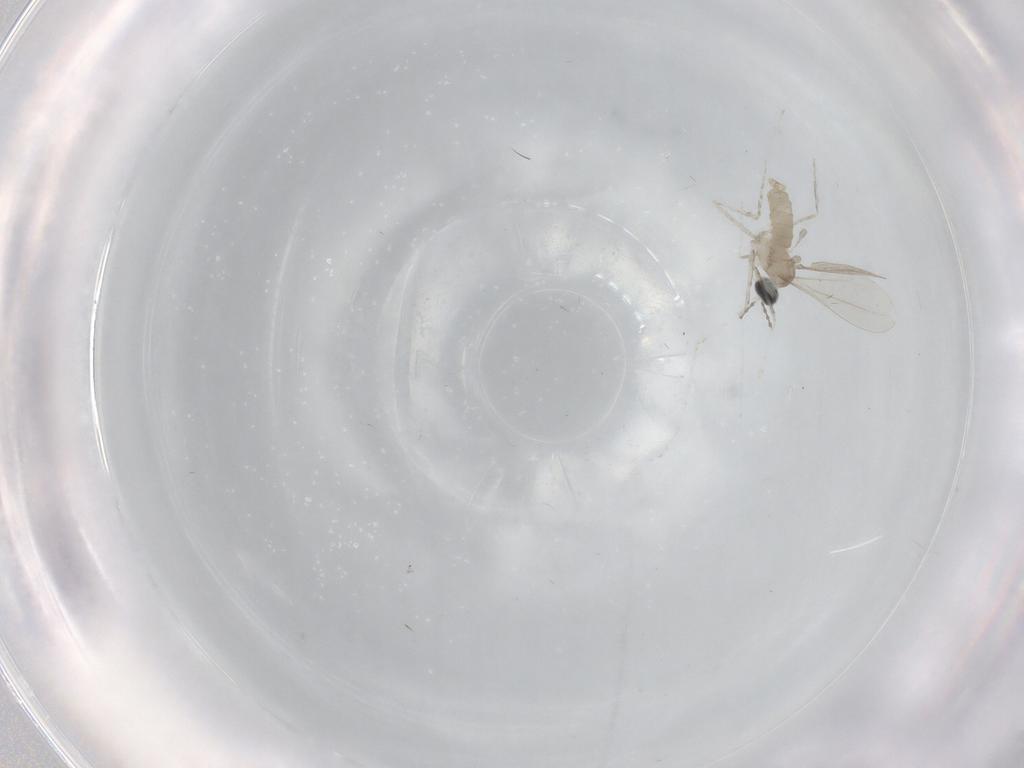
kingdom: Animalia
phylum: Arthropoda
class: Insecta
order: Diptera
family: Cecidomyiidae
